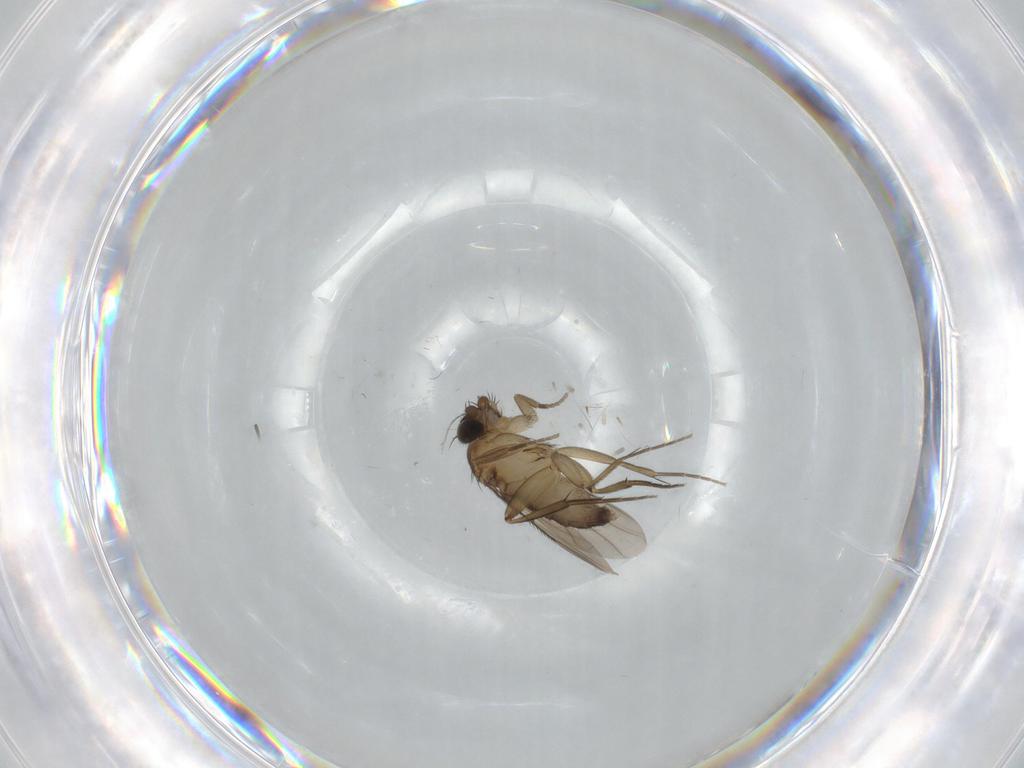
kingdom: Animalia
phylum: Arthropoda
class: Insecta
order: Diptera
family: Phoridae
